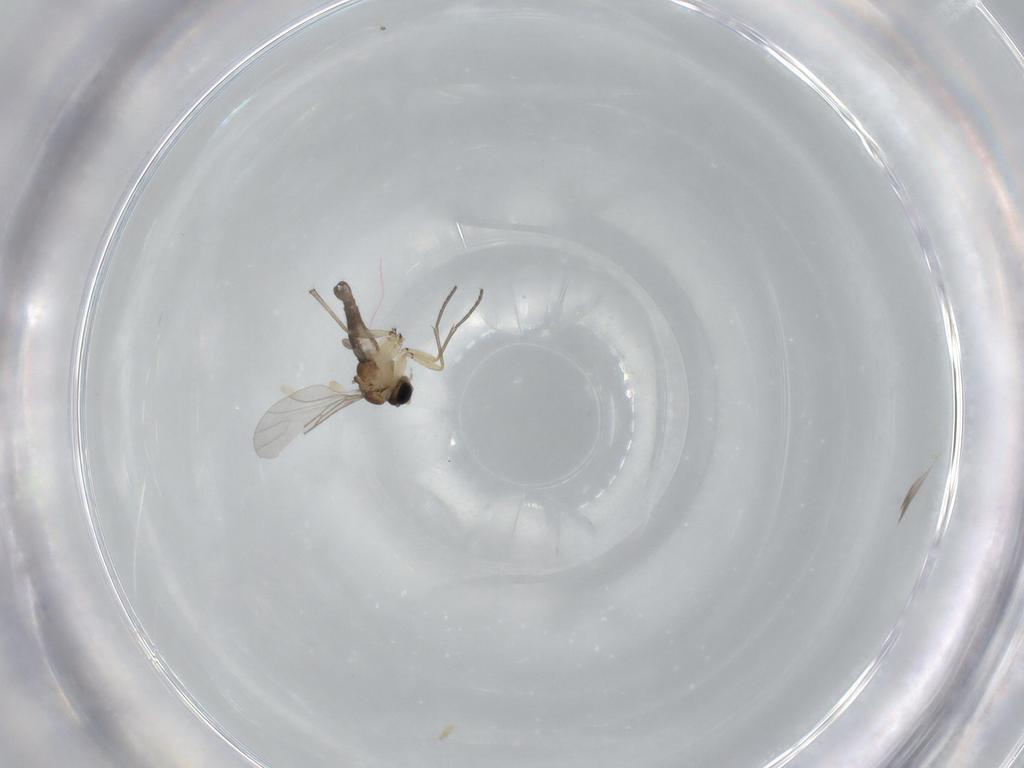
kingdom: Animalia
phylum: Arthropoda
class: Insecta
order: Diptera
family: Sciaridae
